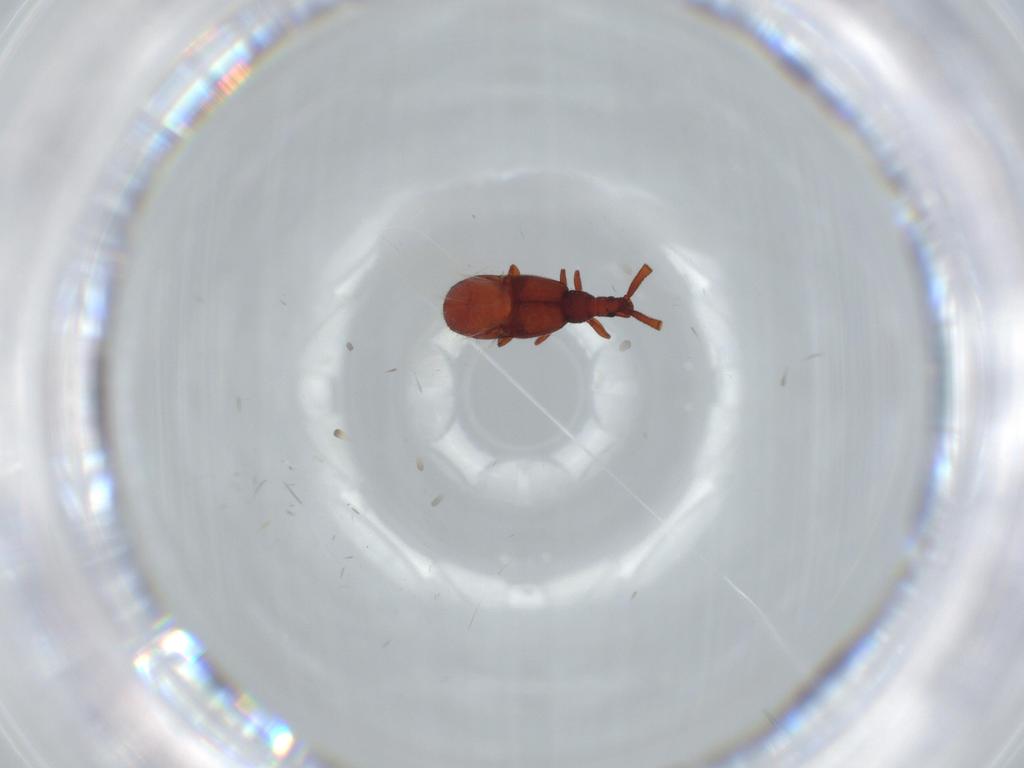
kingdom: Animalia
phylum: Arthropoda
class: Insecta
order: Coleoptera
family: Staphylinidae
